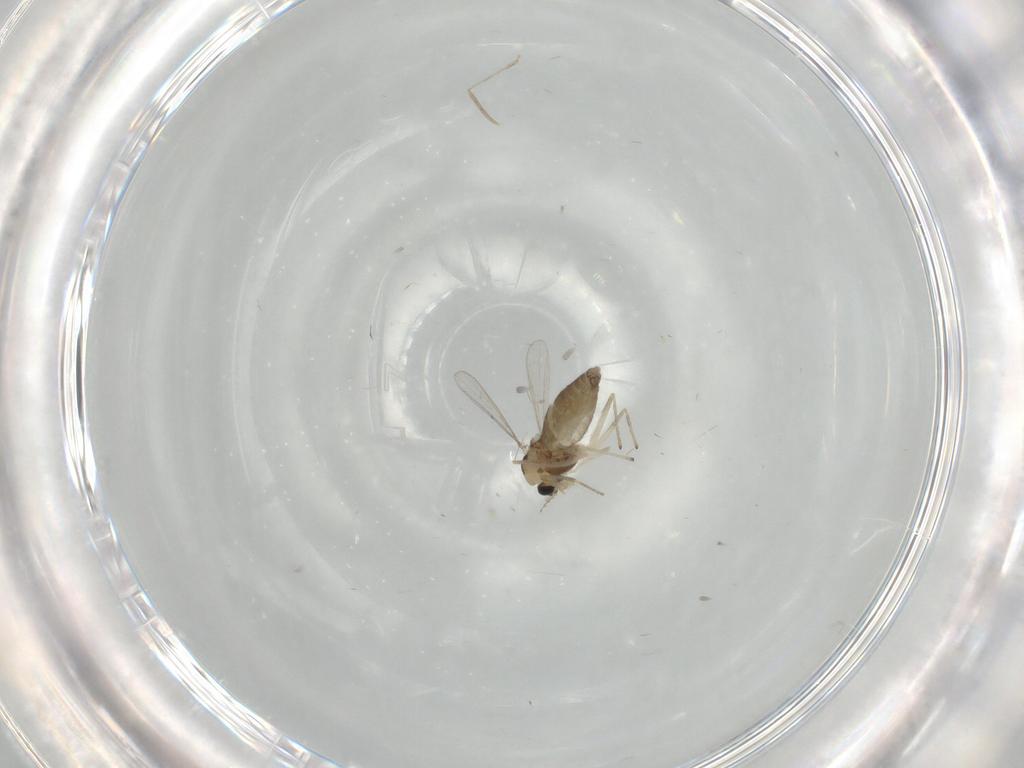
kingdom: Animalia
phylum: Arthropoda
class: Insecta
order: Diptera
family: Chironomidae
